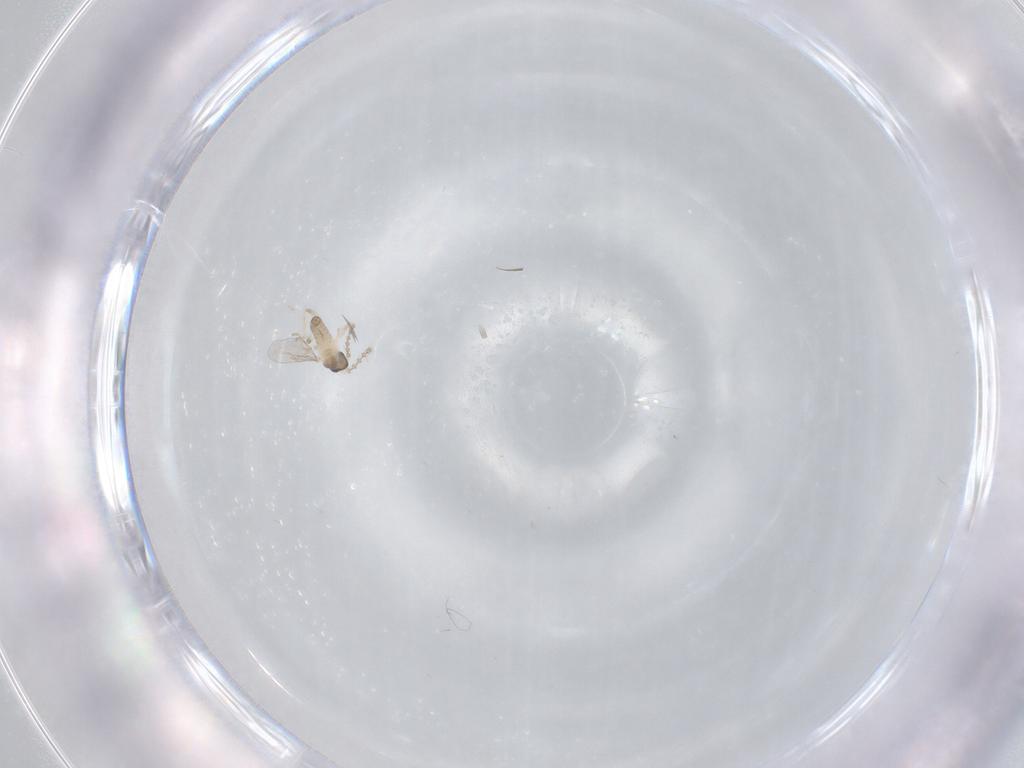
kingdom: Animalia
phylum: Arthropoda
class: Insecta
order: Diptera
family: Cecidomyiidae
